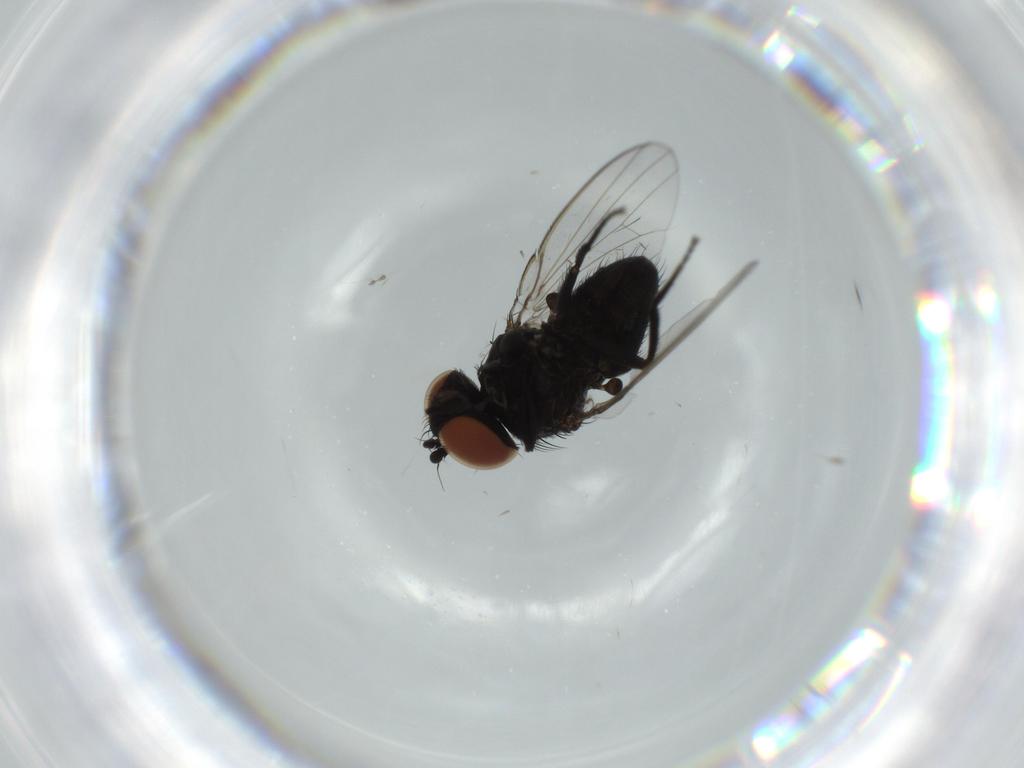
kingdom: Animalia
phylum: Arthropoda
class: Insecta
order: Diptera
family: Milichiidae
